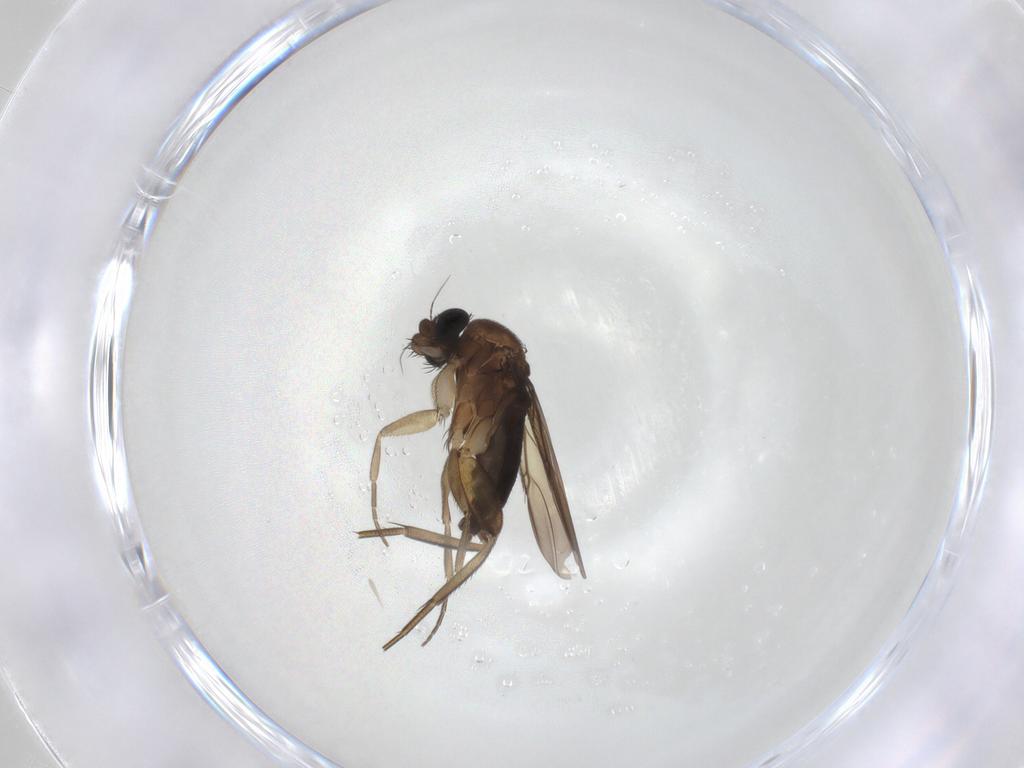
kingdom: Animalia
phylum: Arthropoda
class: Insecta
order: Diptera
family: Phoridae
